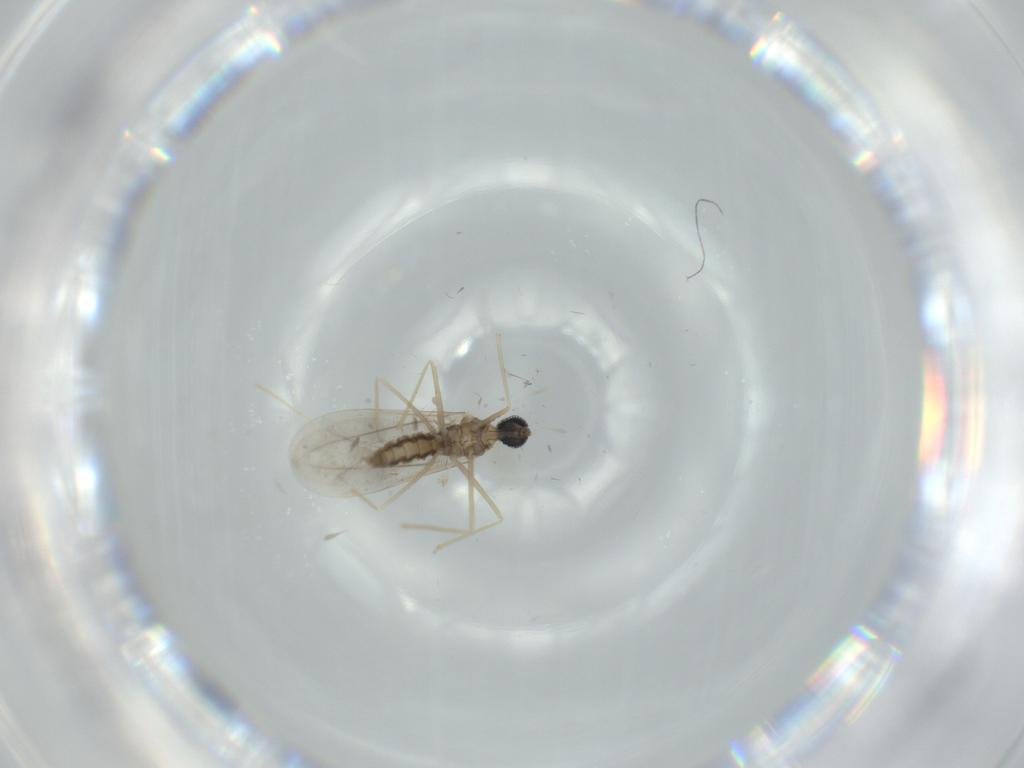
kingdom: Animalia
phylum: Arthropoda
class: Insecta
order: Diptera
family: Cecidomyiidae
